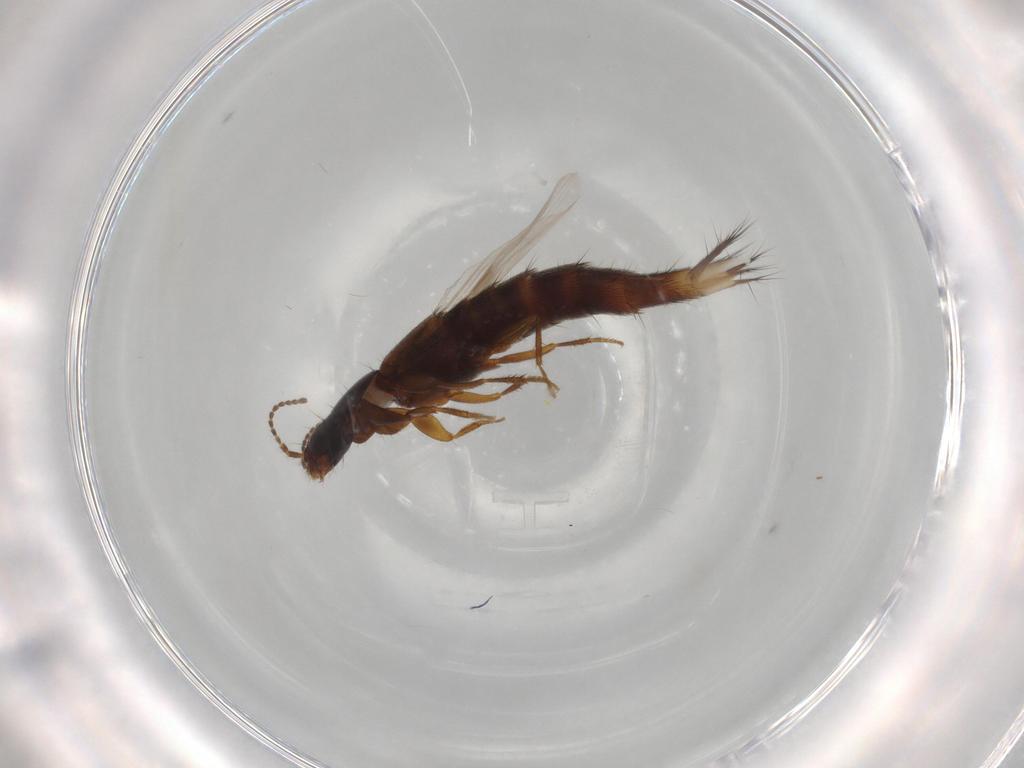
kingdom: Animalia
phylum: Arthropoda
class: Insecta
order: Coleoptera
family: Staphylinidae
